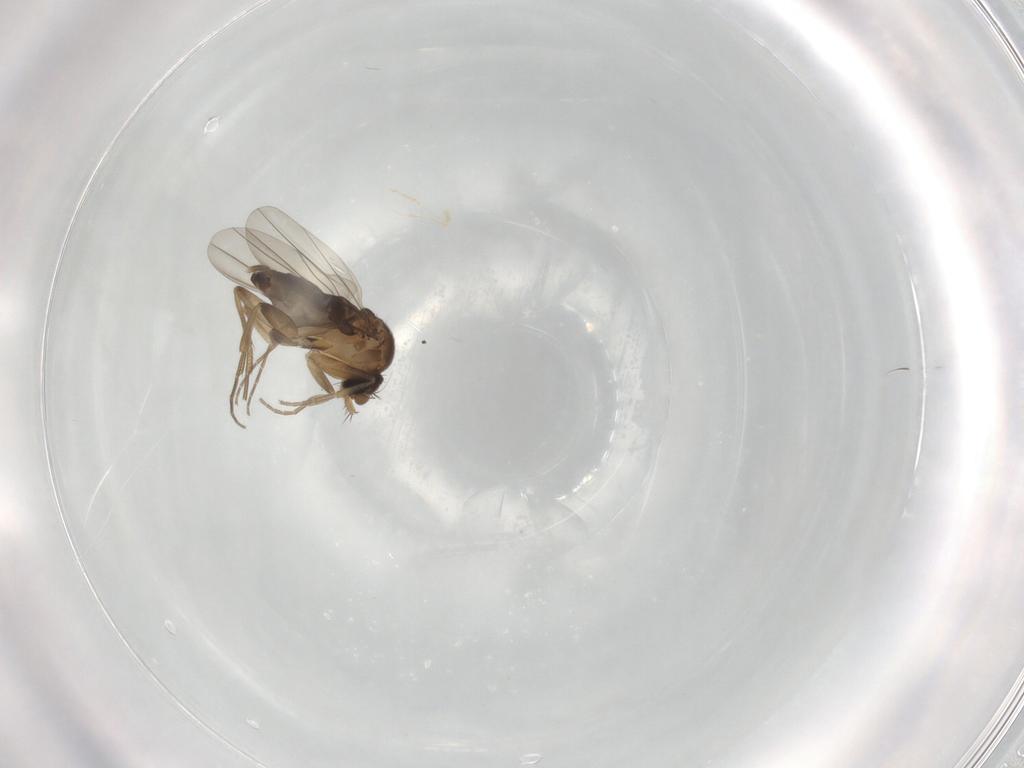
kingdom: Animalia
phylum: Arthropoda
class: Insecta
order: Diptera
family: Phoridae
